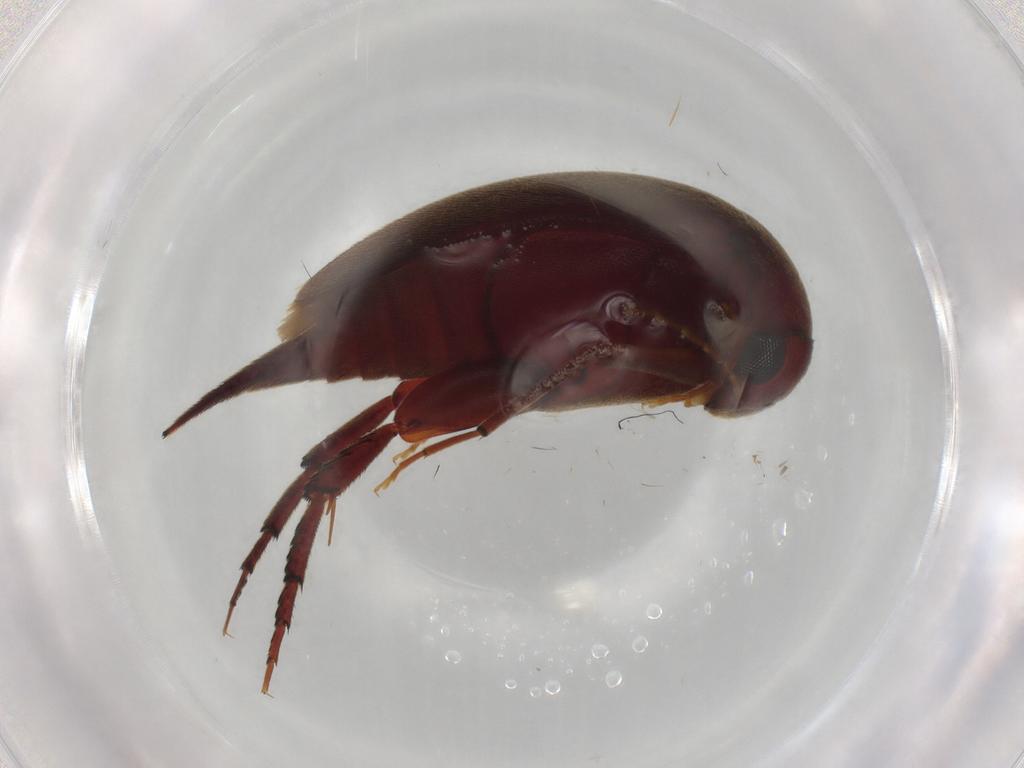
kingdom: Animalia
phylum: Arthropoda
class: Insecta
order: Coleoptera
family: Mordellidae
